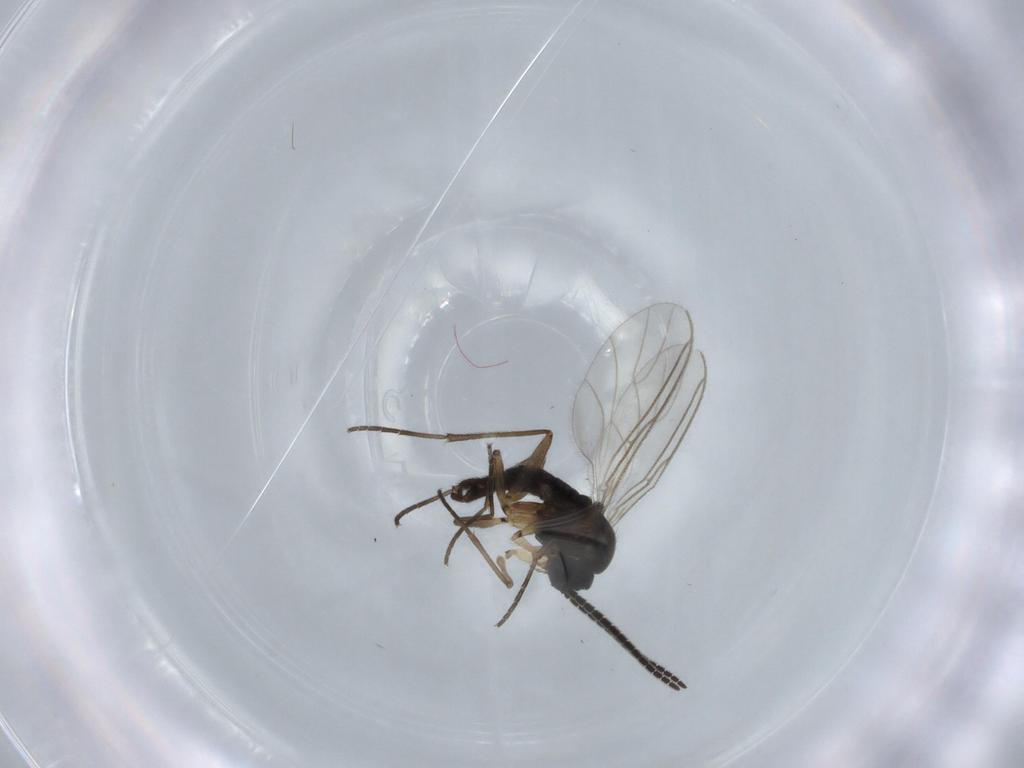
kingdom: Animalia
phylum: Arthropoda
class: Insecta
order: Diptera
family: Sciaridae
